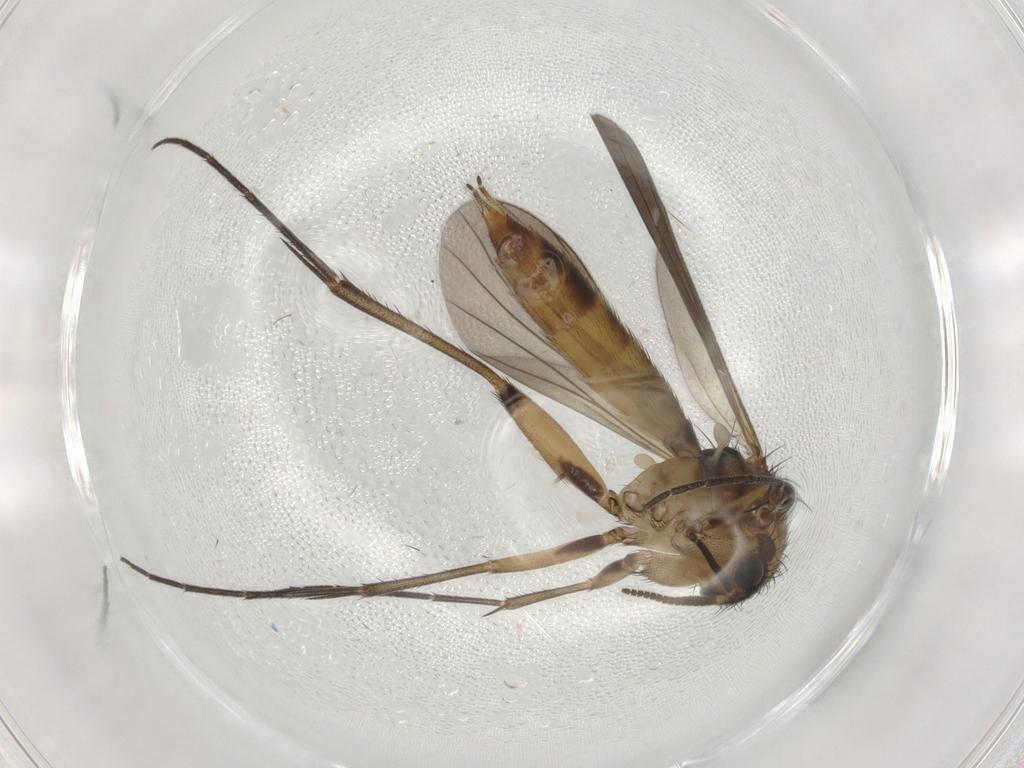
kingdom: Animalia
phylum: Arthropoda
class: Insecta
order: Diptera
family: Mycetophilidae
